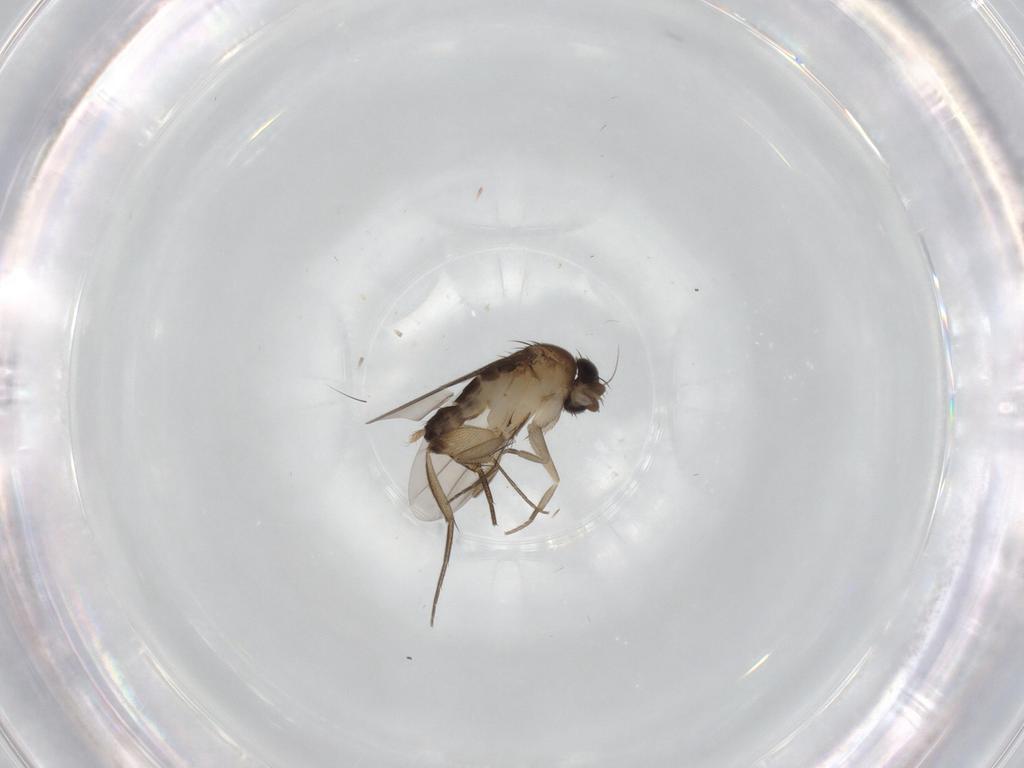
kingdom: Animalia
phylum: Arthropoda
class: Insecta
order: Diptera
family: Phoridae
